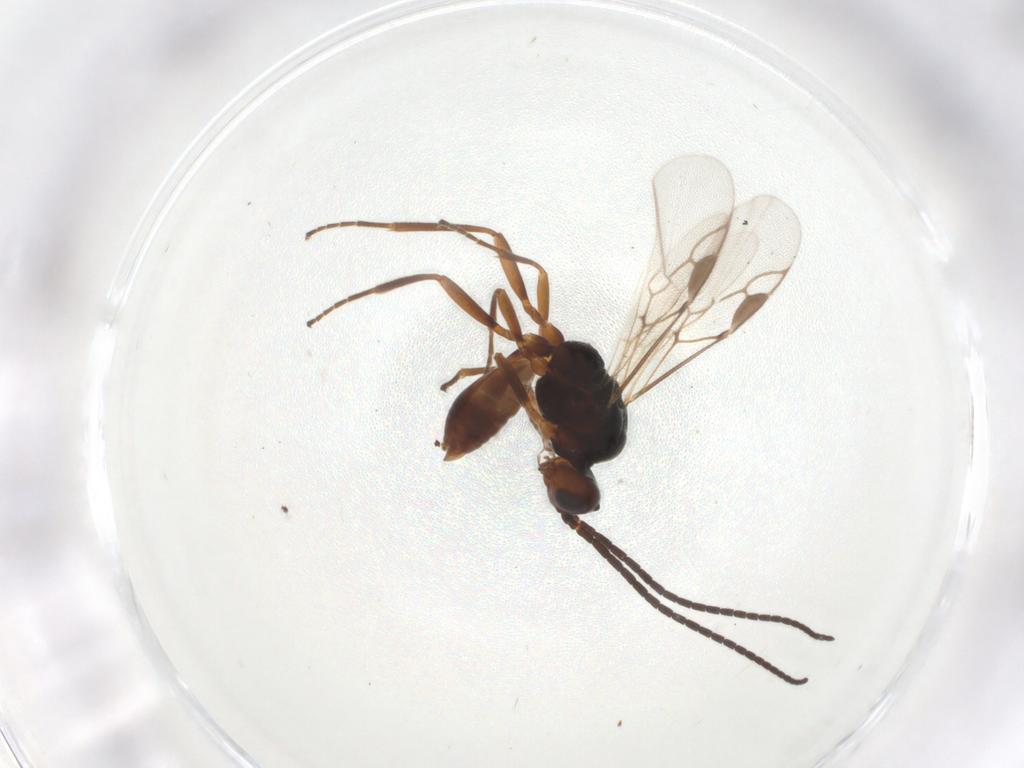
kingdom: Animalia
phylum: Arthropoda
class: Insecta
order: Hymenoptera
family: Braconidae
